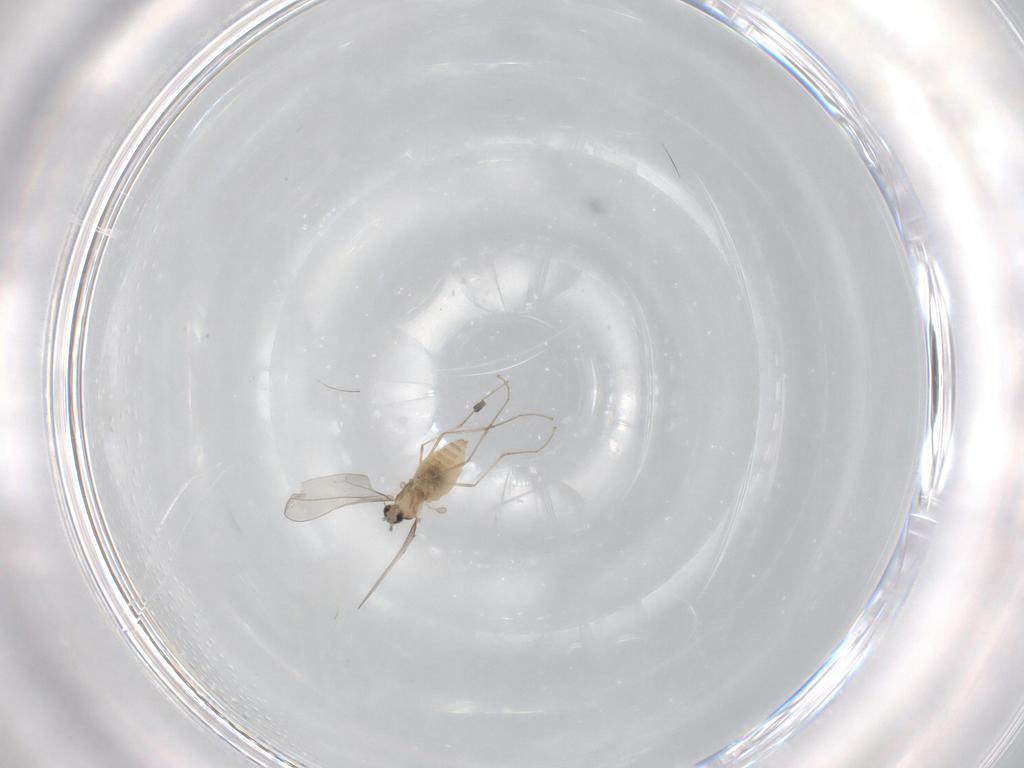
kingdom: Animalia
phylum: Arthropoda
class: Insecta
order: Diptera
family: Cecidomyiidae
